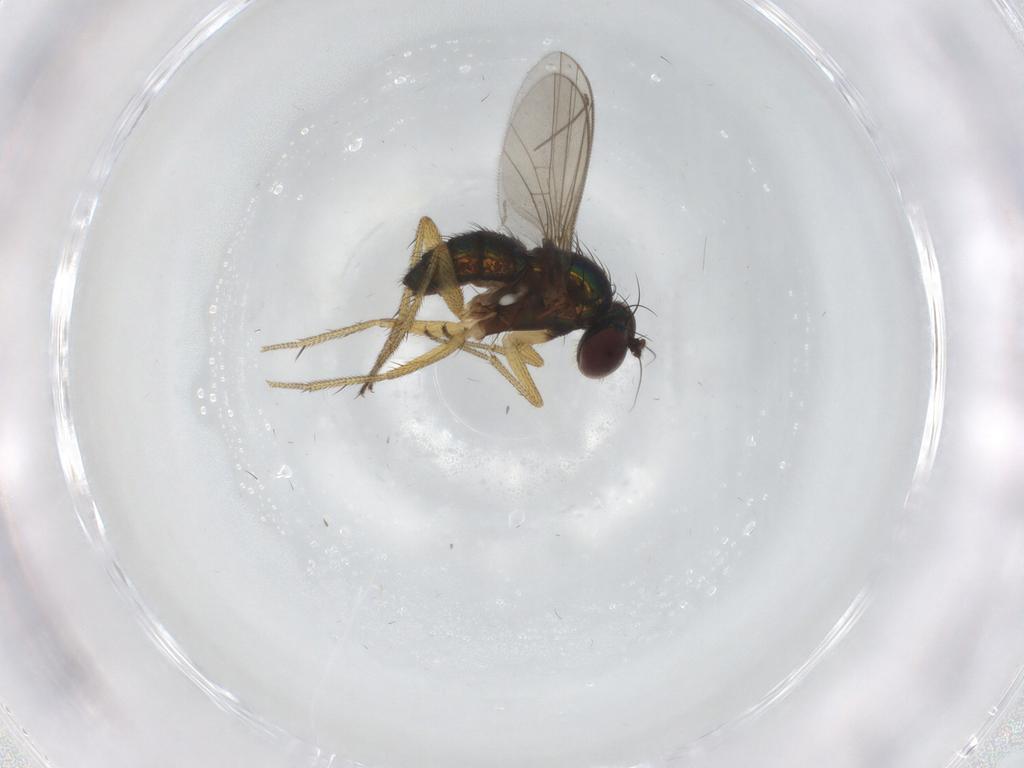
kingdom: Animalia
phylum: Arthropoda
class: Insecta
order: Diptera
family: Chironomidae
